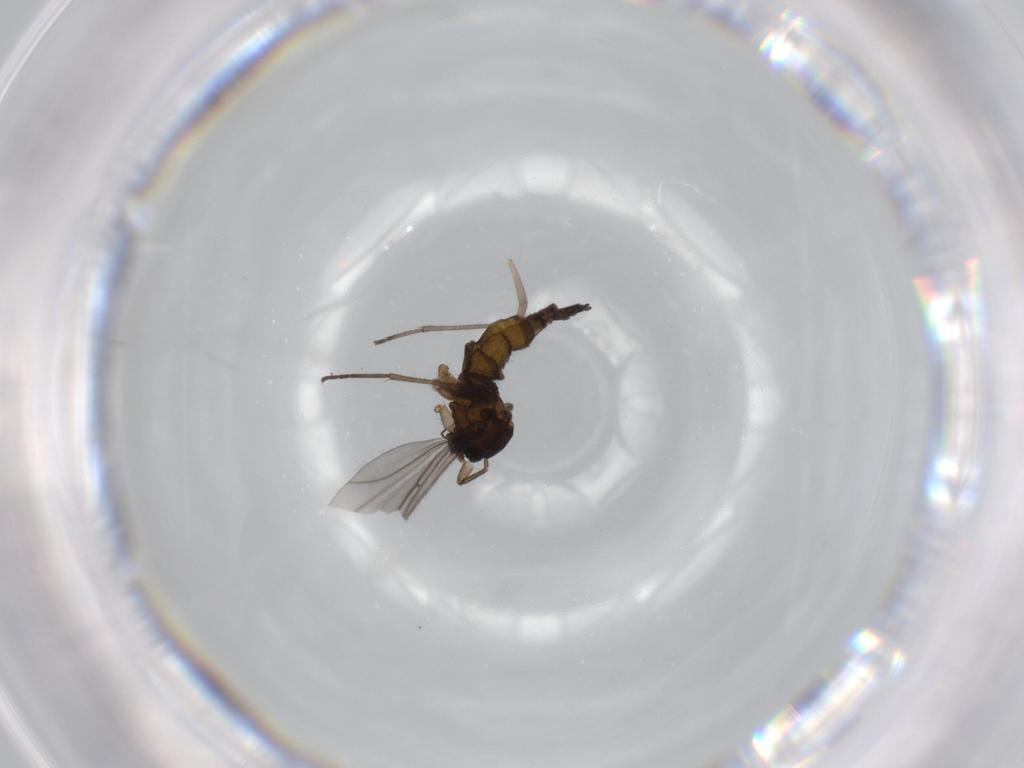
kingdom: Animalia
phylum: Arthropoda
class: Insecta
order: Diptera
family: Sciaridae
